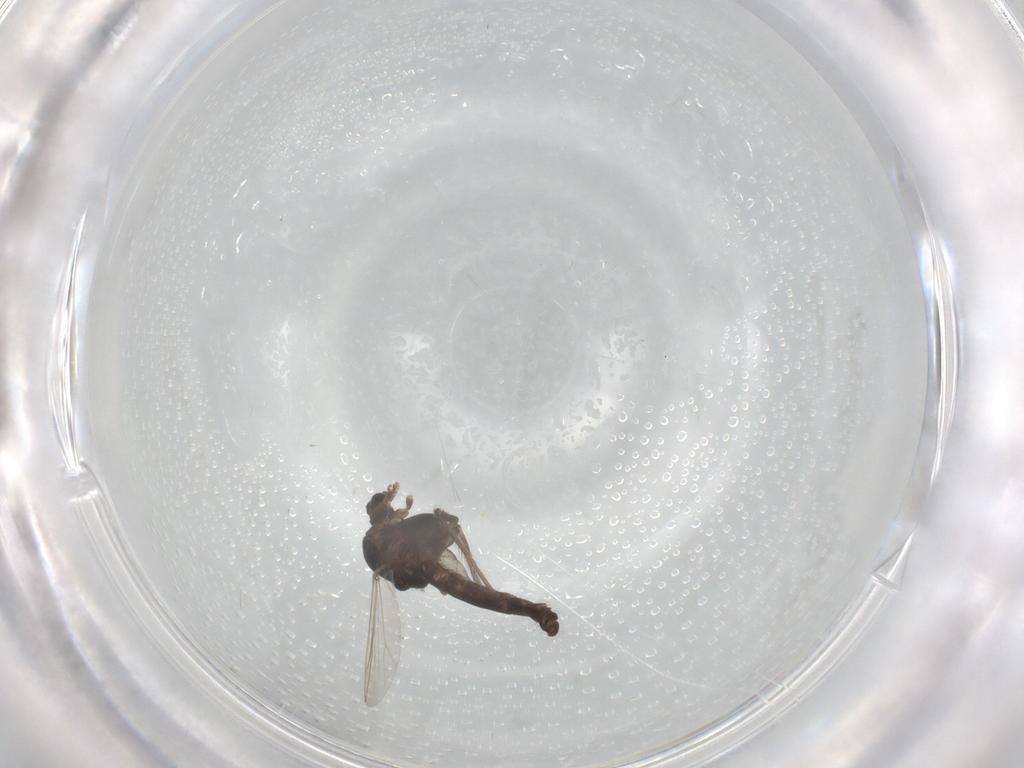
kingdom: Animalia
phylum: Arthropoda
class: Insecta
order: Diptera
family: Chironomidae
